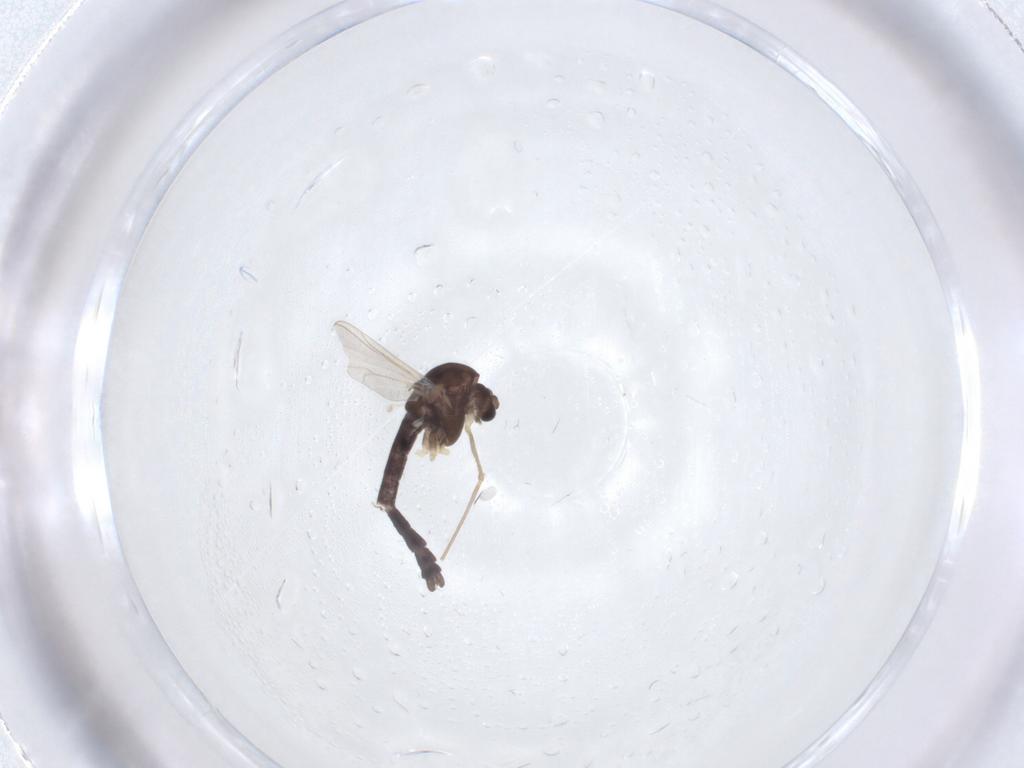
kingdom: Animalia
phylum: Arthropoda
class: Insecta
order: Diptera
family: Chironomidae
